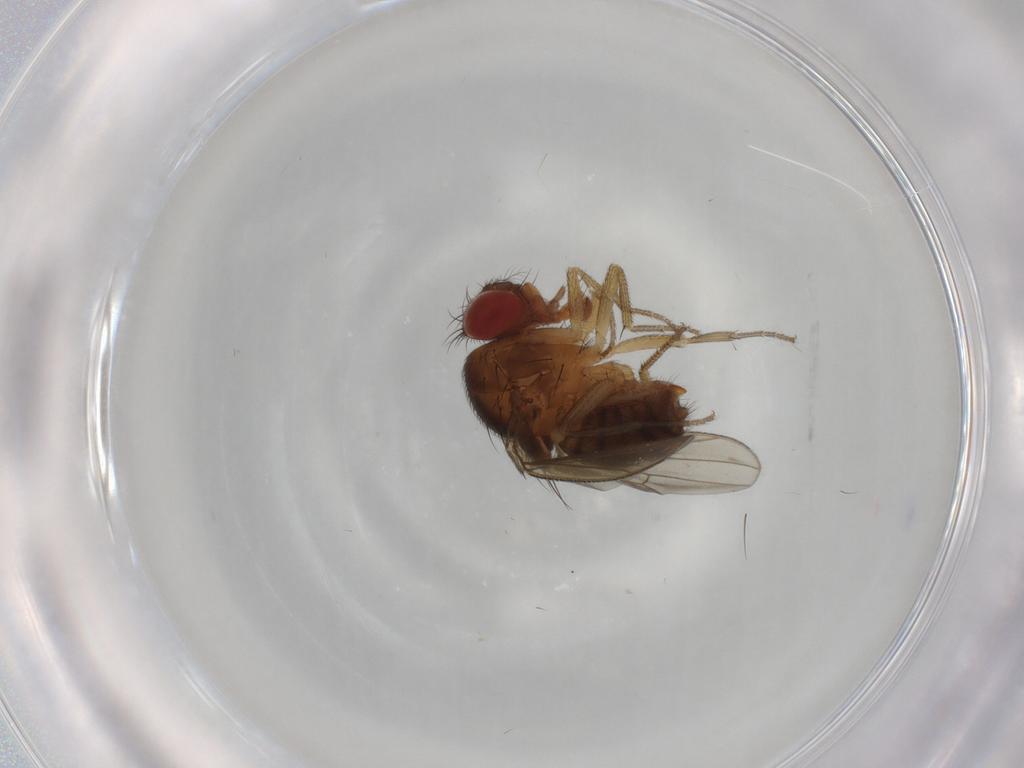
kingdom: Animalia
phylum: Arthropoda
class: Insecta
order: Diptera
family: Drosophilidae
